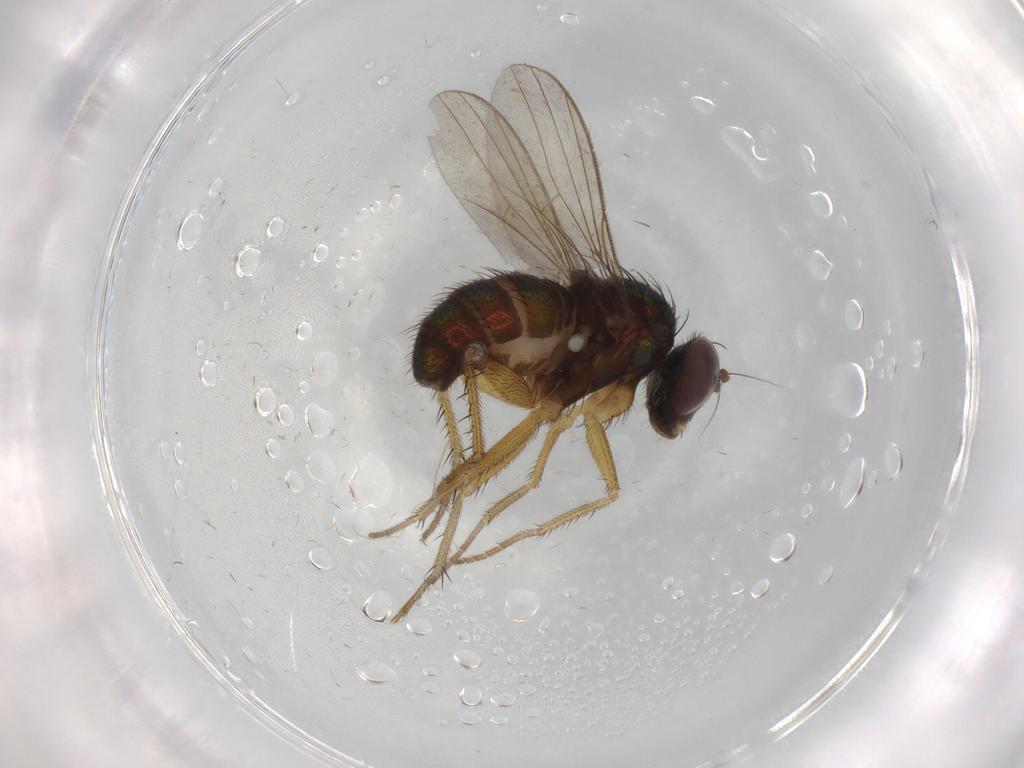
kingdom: Animalia
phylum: Arthropoda
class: Insecta
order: Diptera
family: Dolichopodidae
